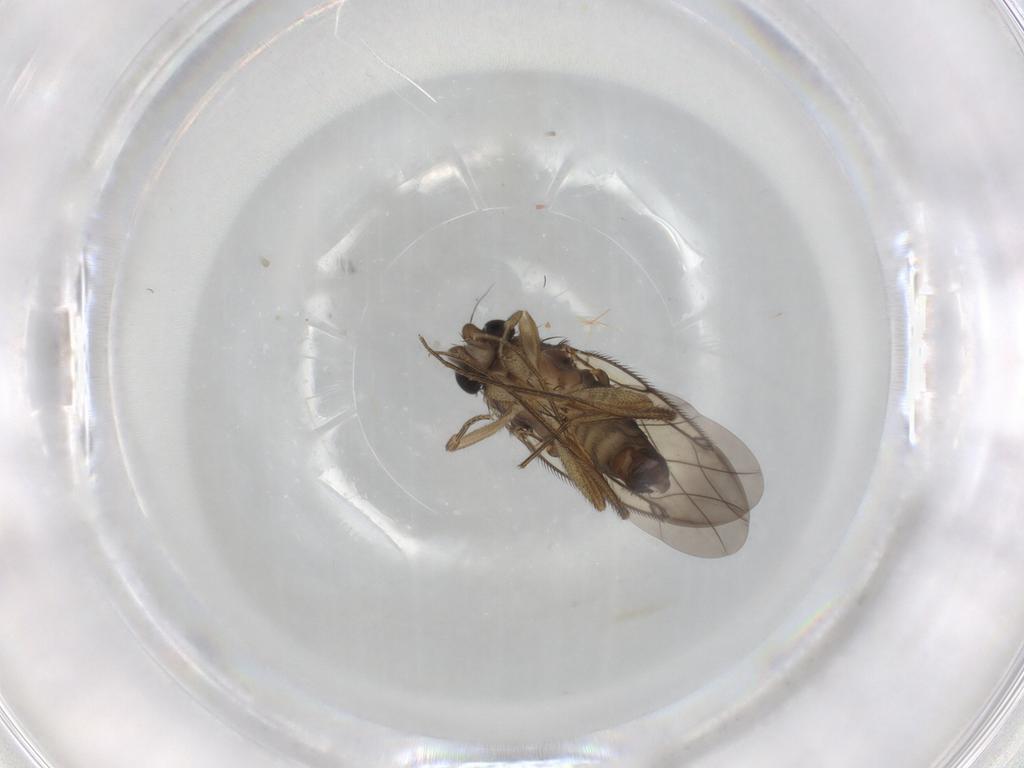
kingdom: Animalia
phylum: Arthropoda
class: Insecta
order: Diptera
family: Phoridae
